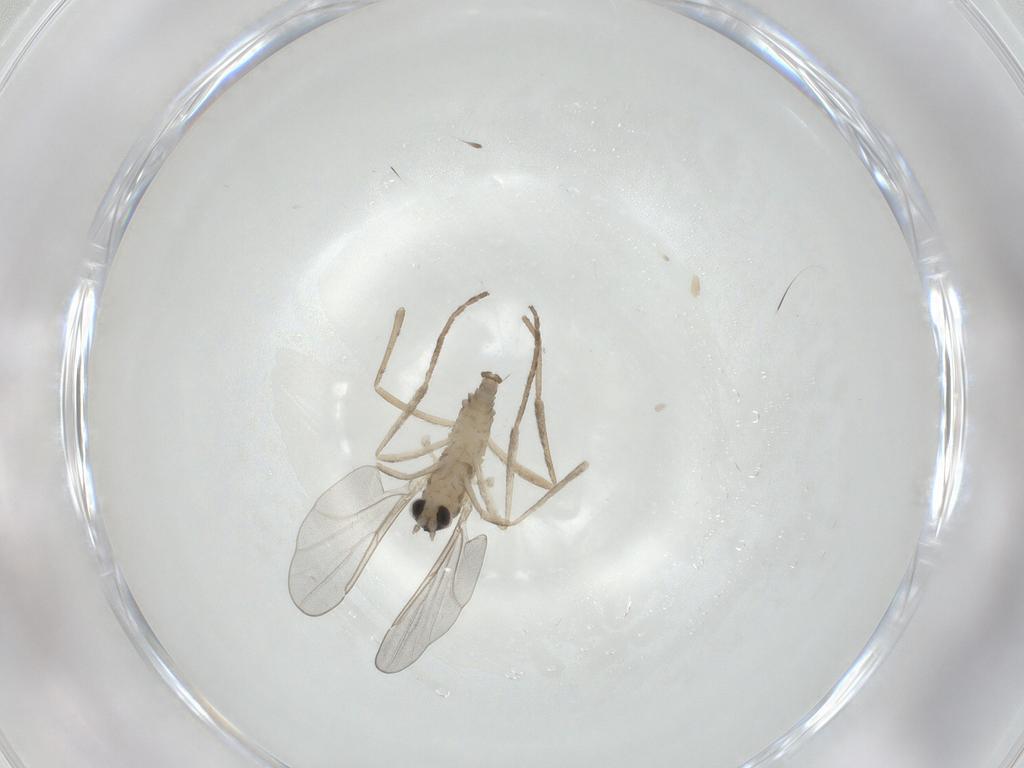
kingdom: Animalia
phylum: Arthropoda
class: Insecta
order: Diptera
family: Cecidomyiidae
